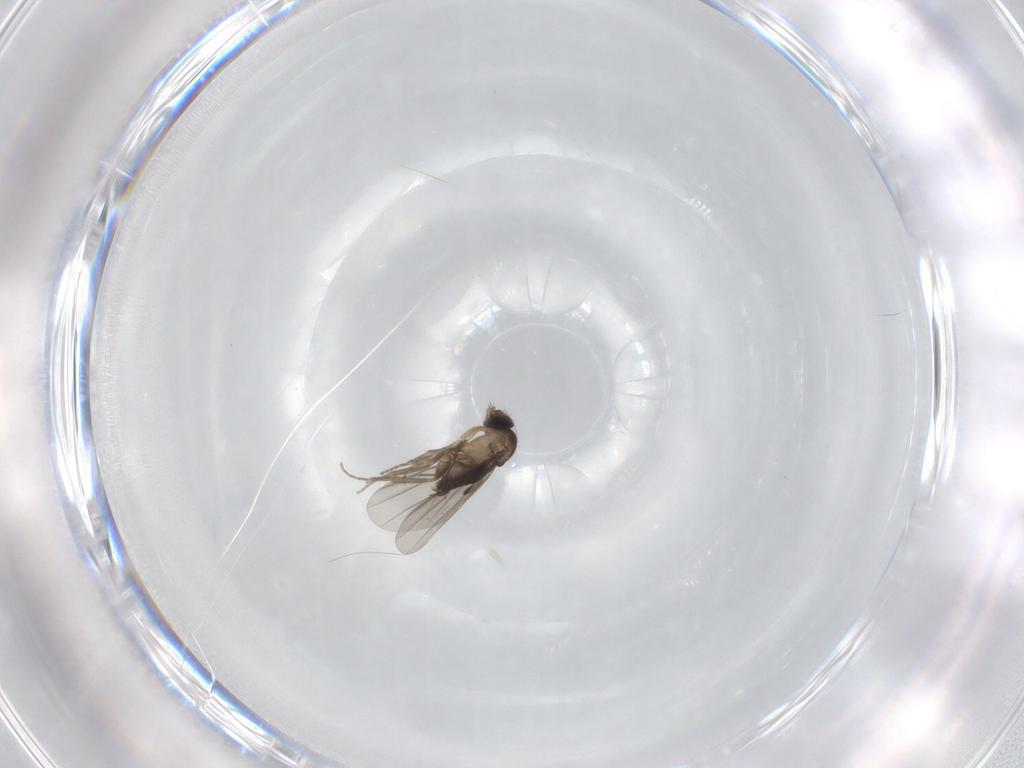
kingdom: Animalia
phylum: Arthropoda
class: Insecta
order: Diptera
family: Phoridae
